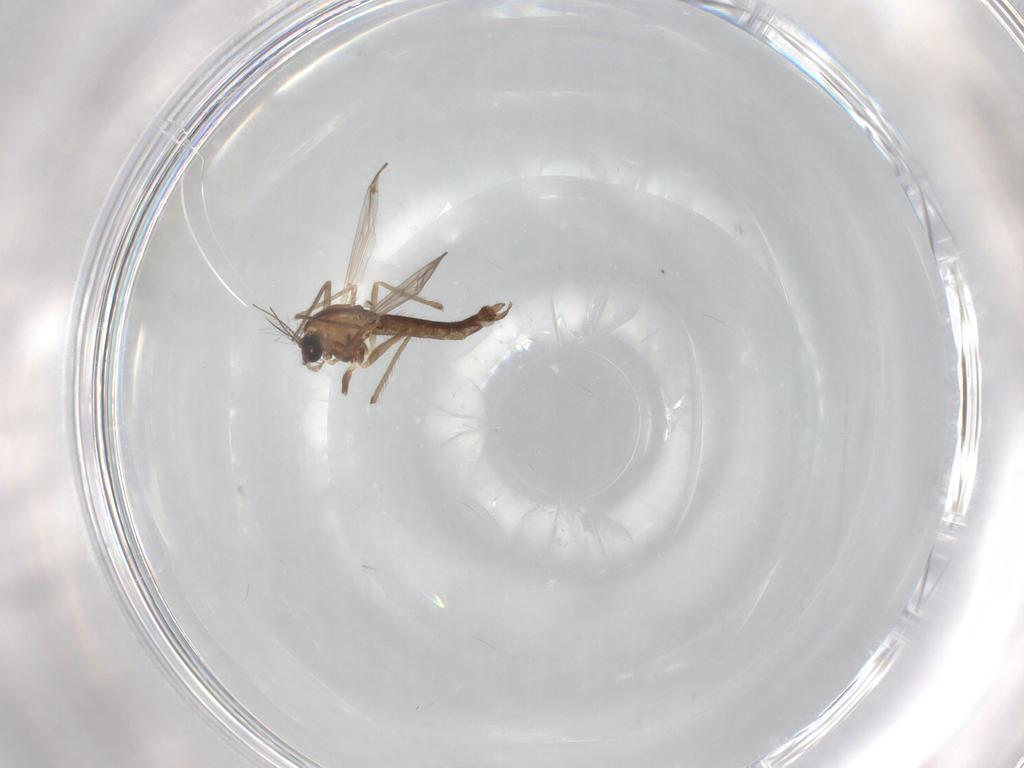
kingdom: Animalia
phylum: Arthropoda
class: Insecta
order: Diptera
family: Chironomidae
